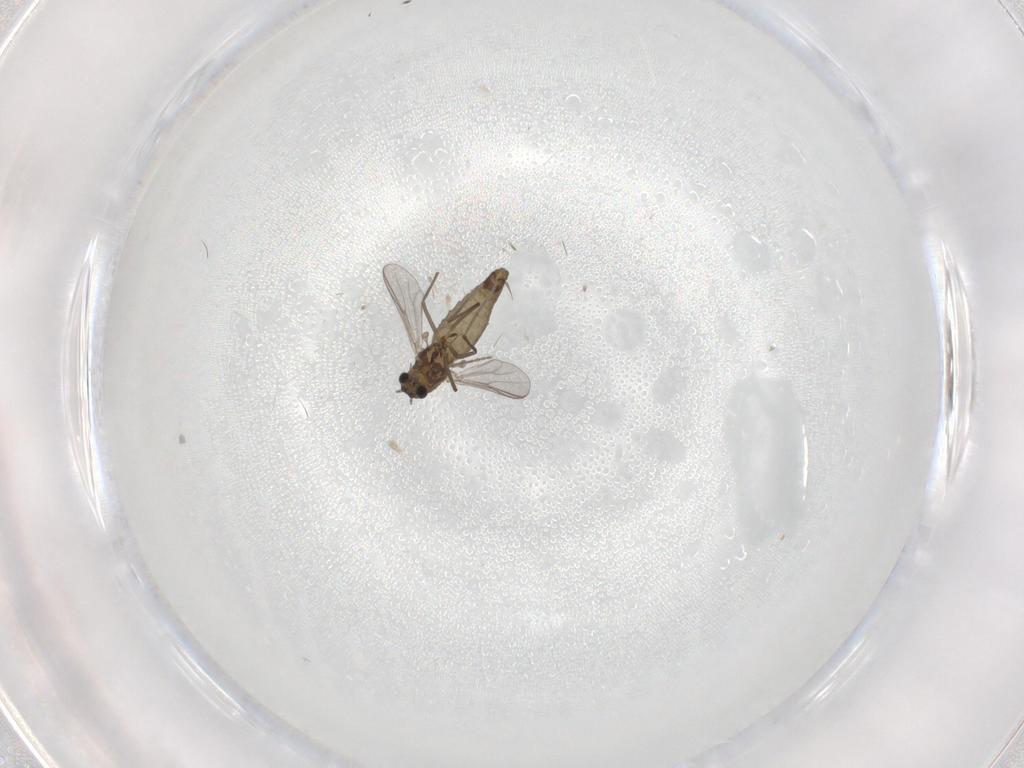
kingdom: Animalia
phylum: Arthropoda
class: Insecta
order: Diptera
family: Chironomidae
